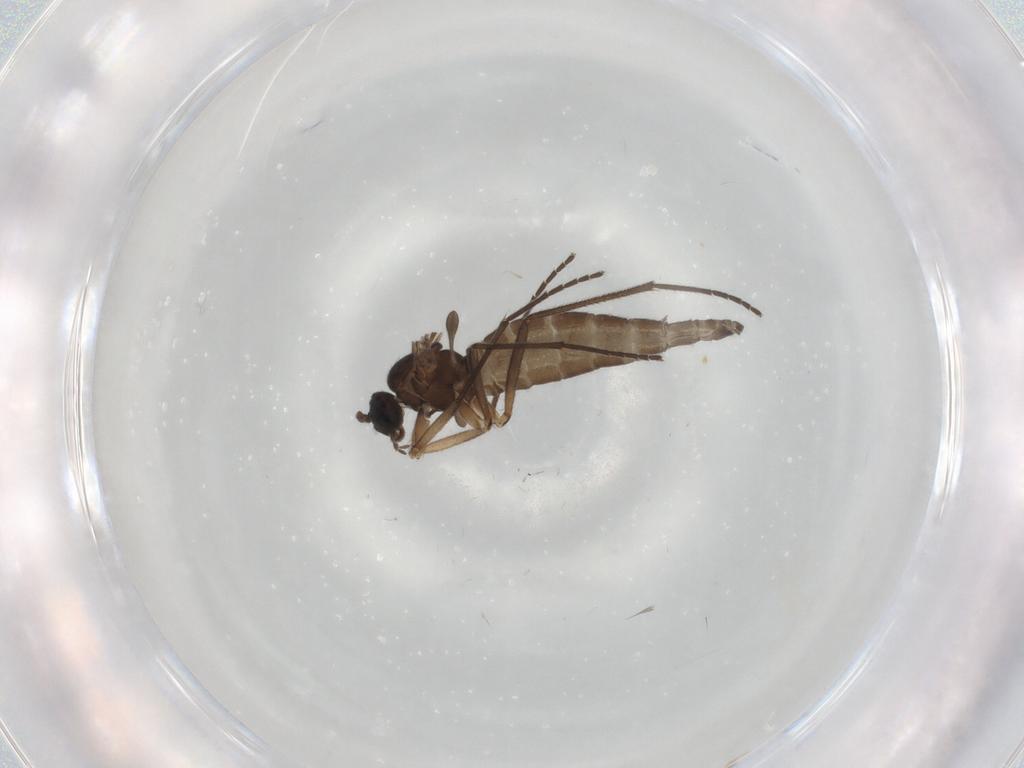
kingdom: Animalia
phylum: Arthropoda
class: Insecta
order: Diptera
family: Sciaridae
